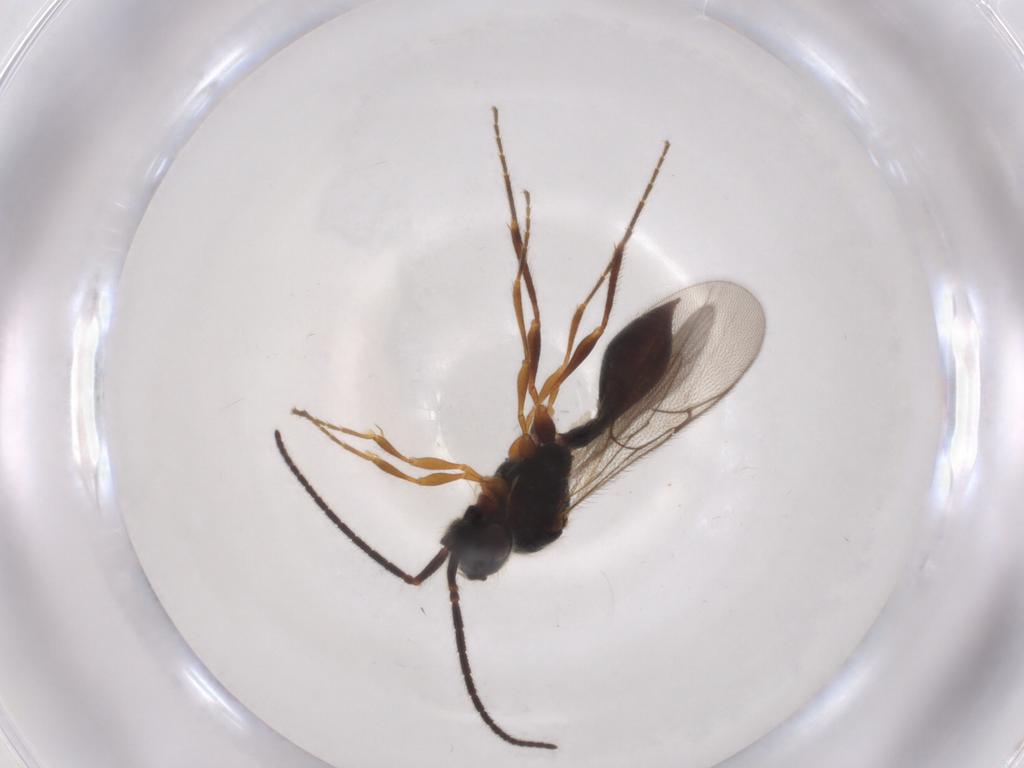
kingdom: Animalia
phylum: Arthropoda
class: Insecta
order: Hymenoptera
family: Diapriidae
